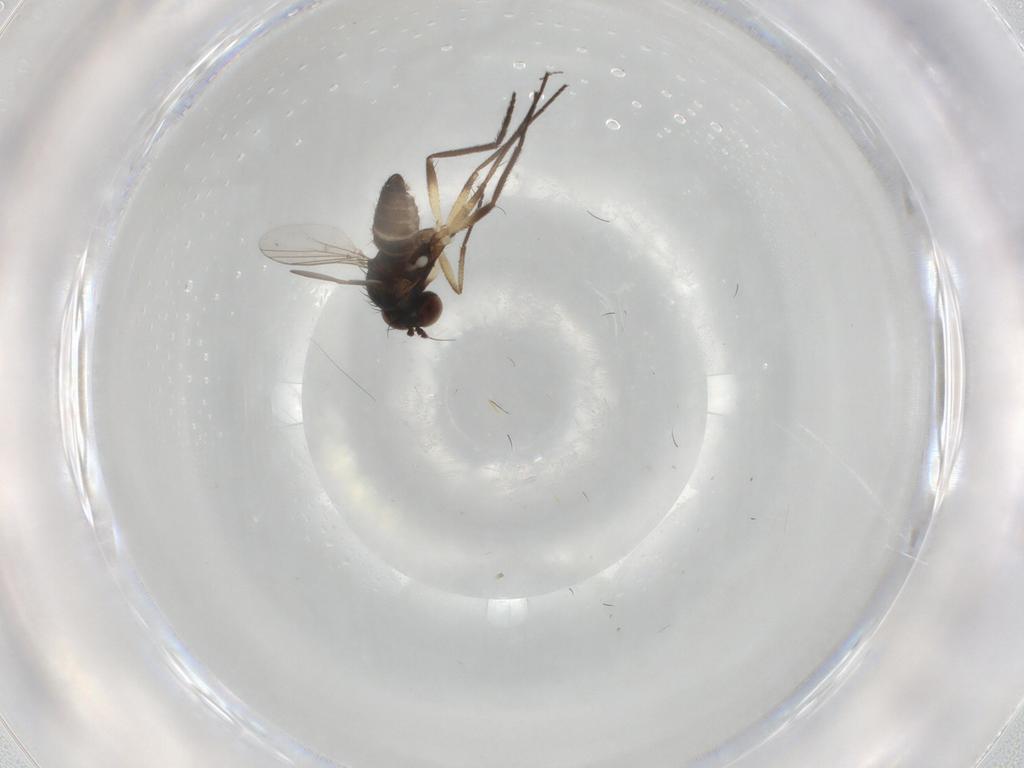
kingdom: Animalia
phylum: Arthropoda
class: Insecta
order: Diptera
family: Dolichopodidae
